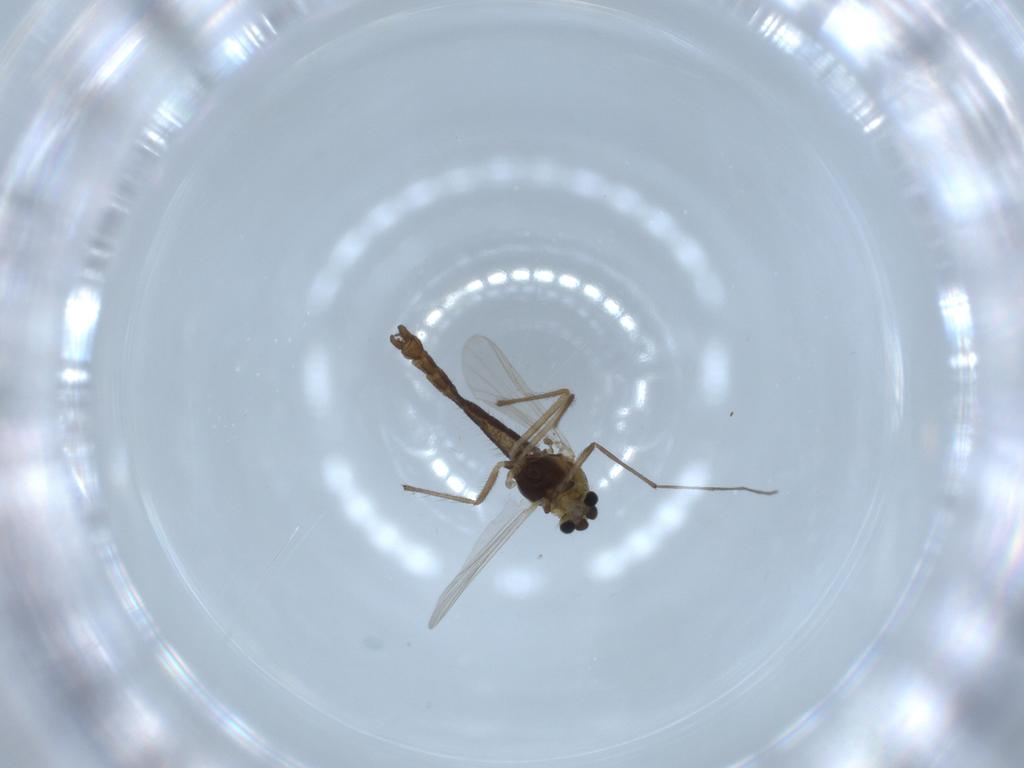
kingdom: Animalia
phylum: Arthropoda
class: Insecta
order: Diptera
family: Chironomidae
